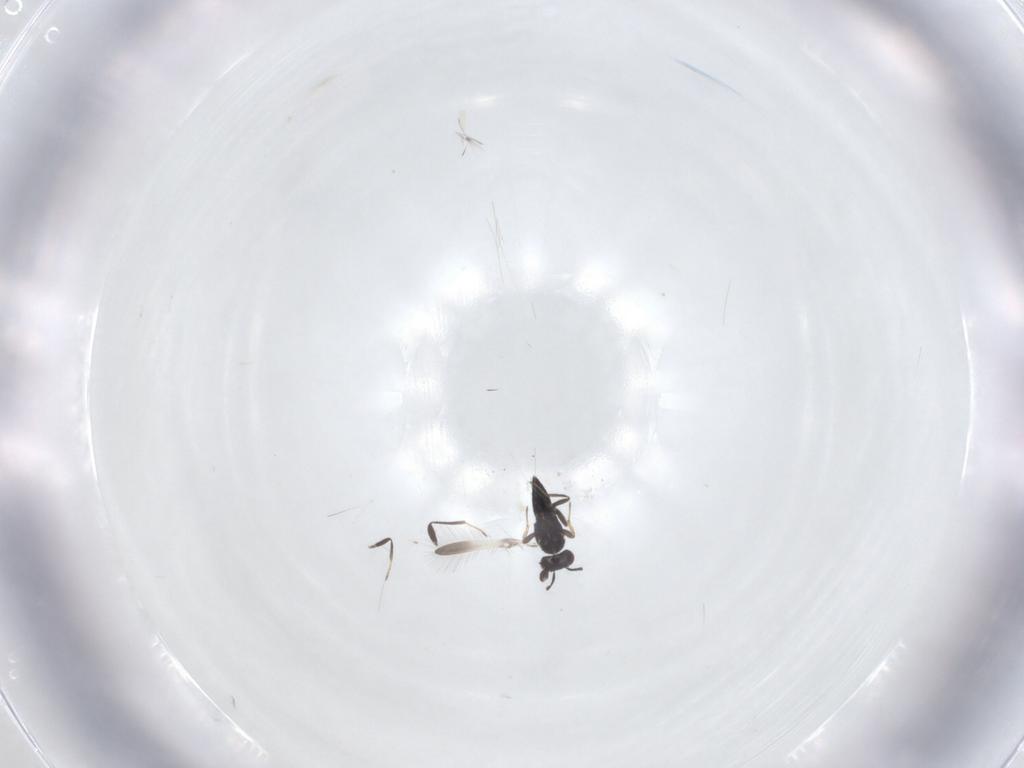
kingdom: Animalia
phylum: Arthropoda
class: Insecta
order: Hymenoptera
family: Mymaridae
